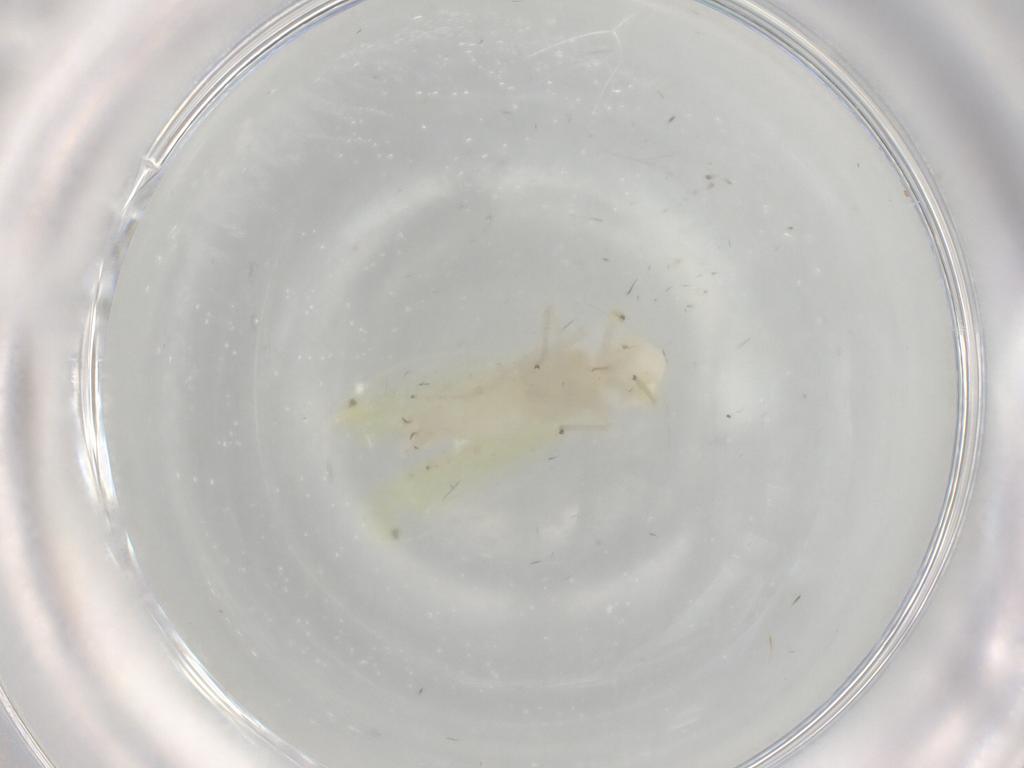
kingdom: Animalia
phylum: Arthropoda
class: Insecta
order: Hemiptera
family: Cicadellidae
